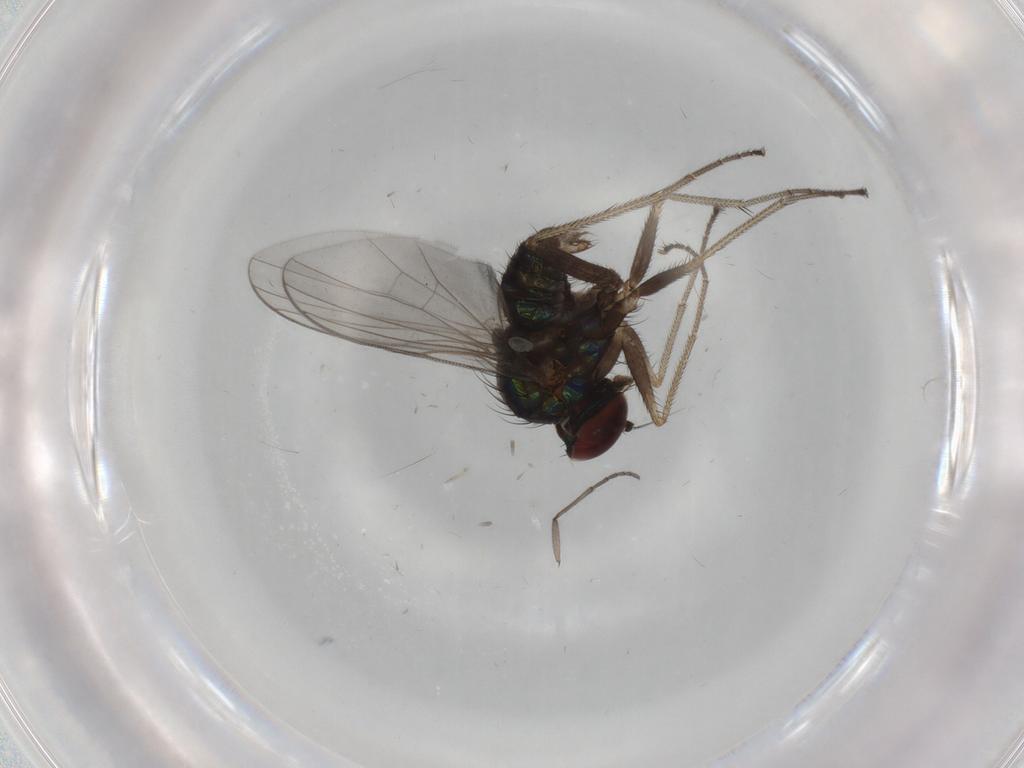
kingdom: Animalia
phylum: Arthropoda
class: Insecta
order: Diptera
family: Dolichopodidae
